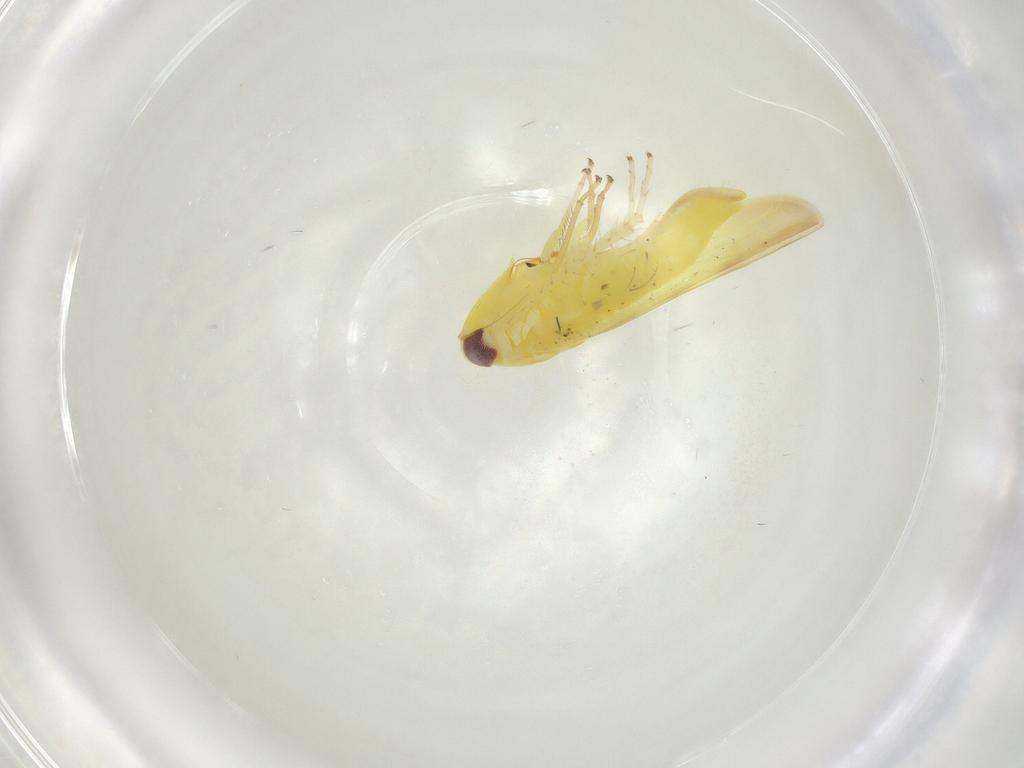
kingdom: Animalia
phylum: Arthropoda
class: Insecta
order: Hemiptera
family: Cicadellidae
